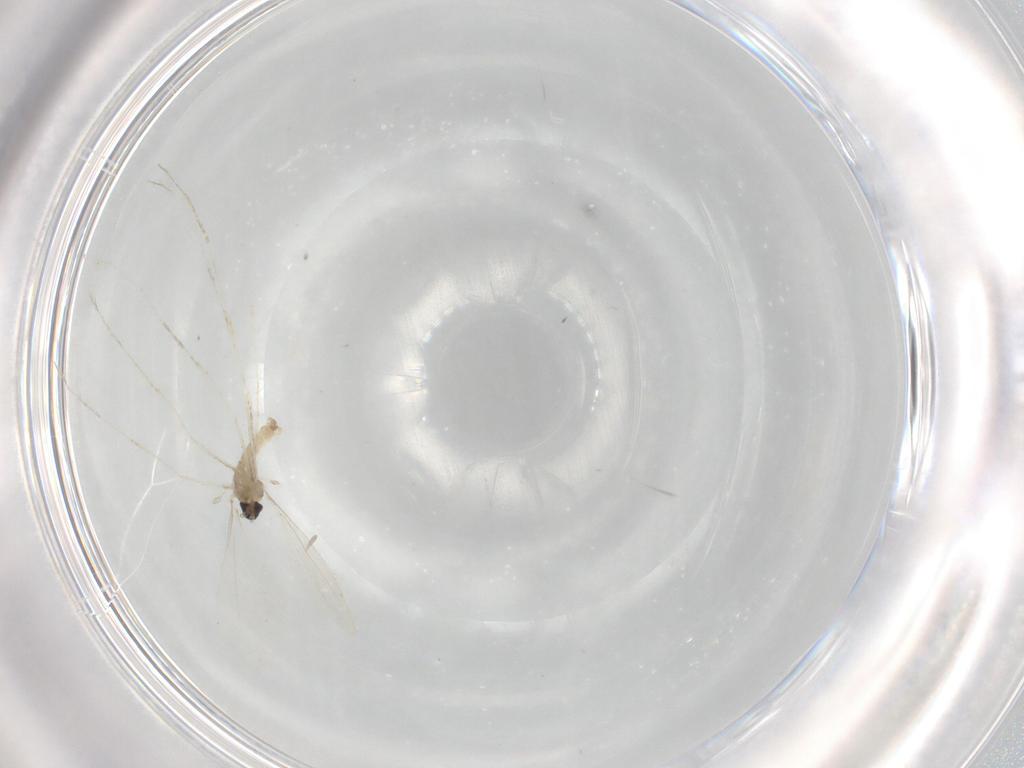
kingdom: Animalia
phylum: Arthropoda
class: Insecta
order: Diptera
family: Cecidomyiidae
